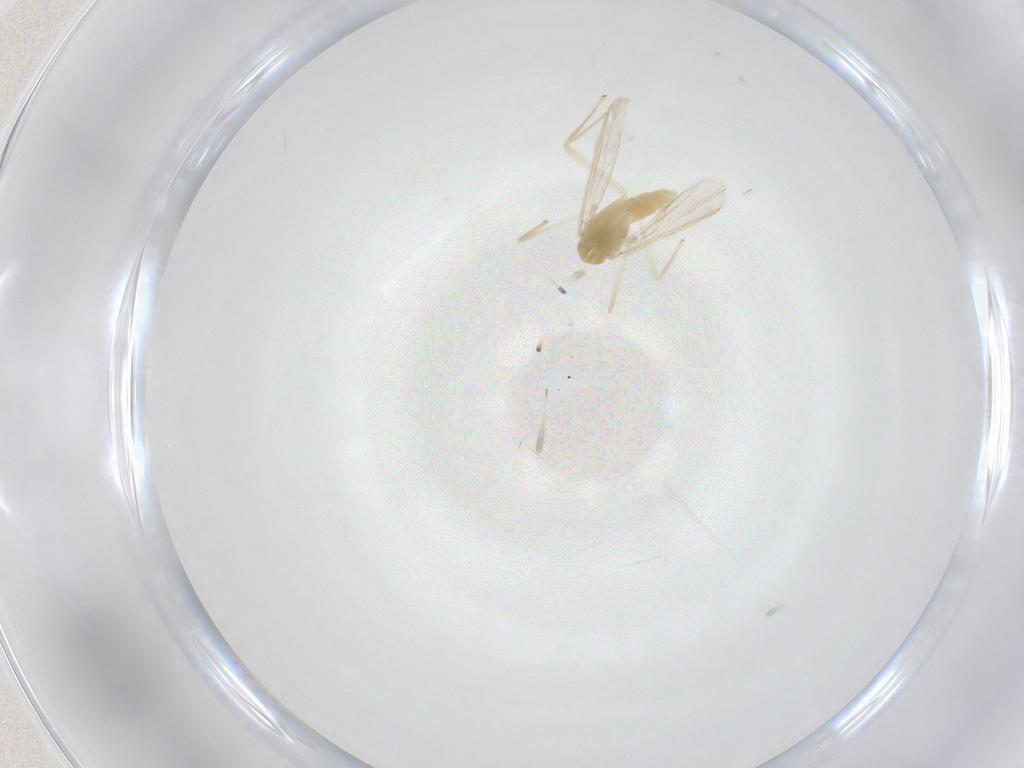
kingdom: Animalia
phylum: Arthropoda
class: Insecta
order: Diptera
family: Chironomidae
